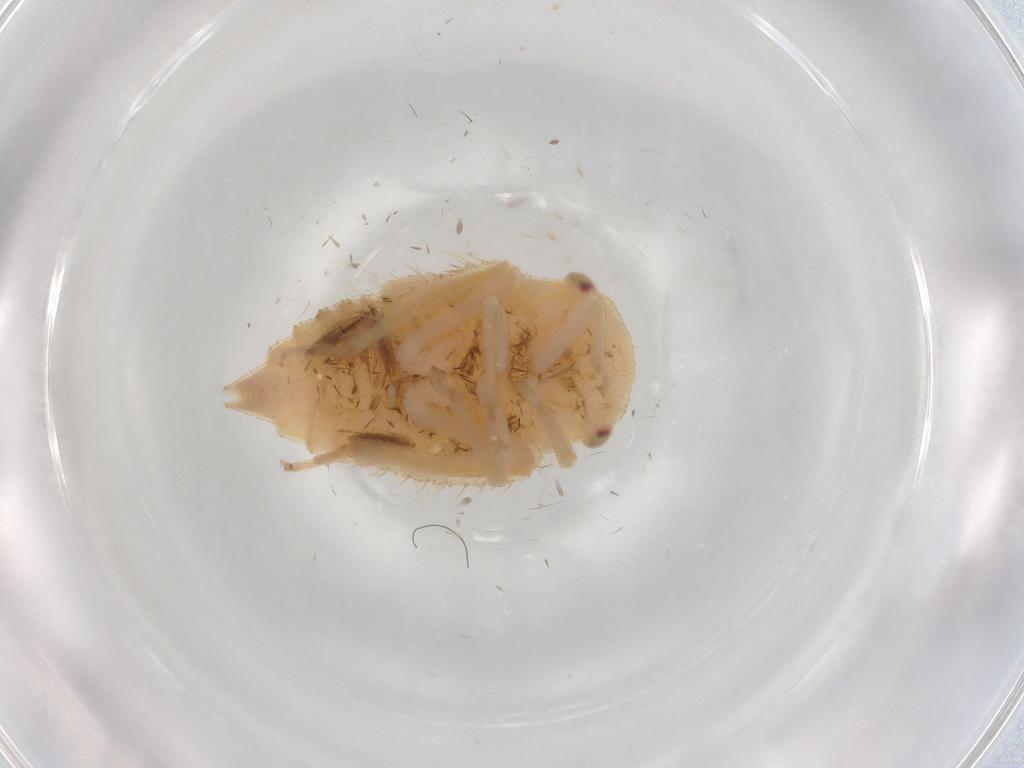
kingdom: Animalia
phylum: Arthropoda
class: Insecta
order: Hemiptera
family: Cicadellidae
